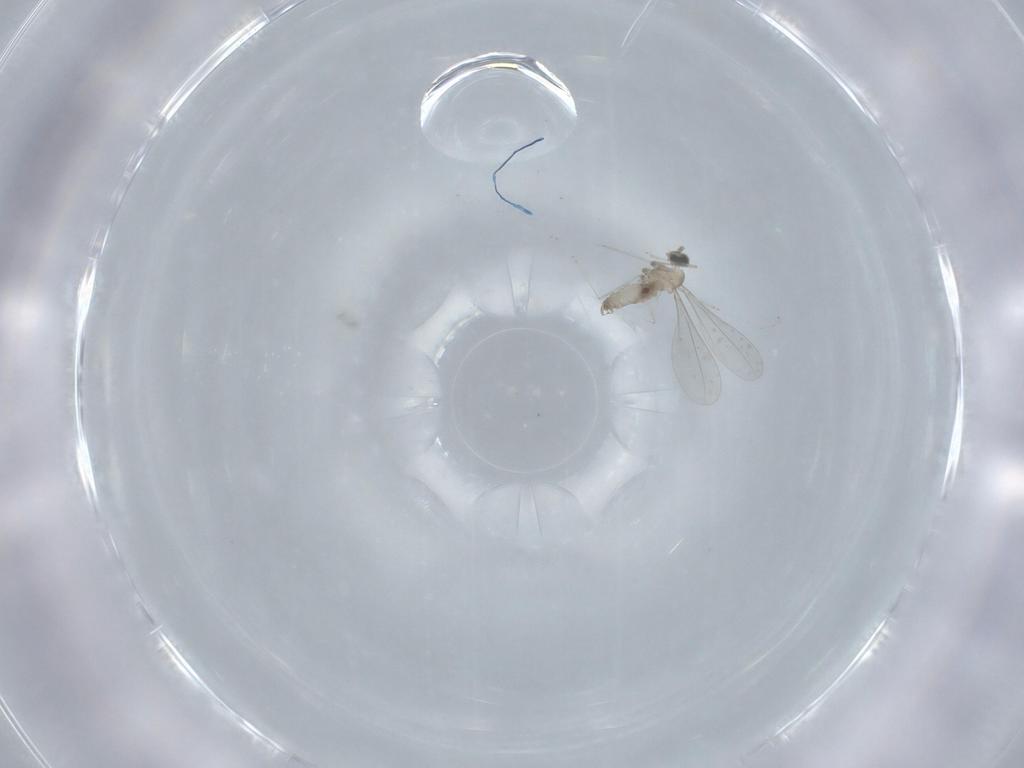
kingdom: Animalia
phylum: Arthropoda
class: Insecta
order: Diptera
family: Cecidomyiidae
